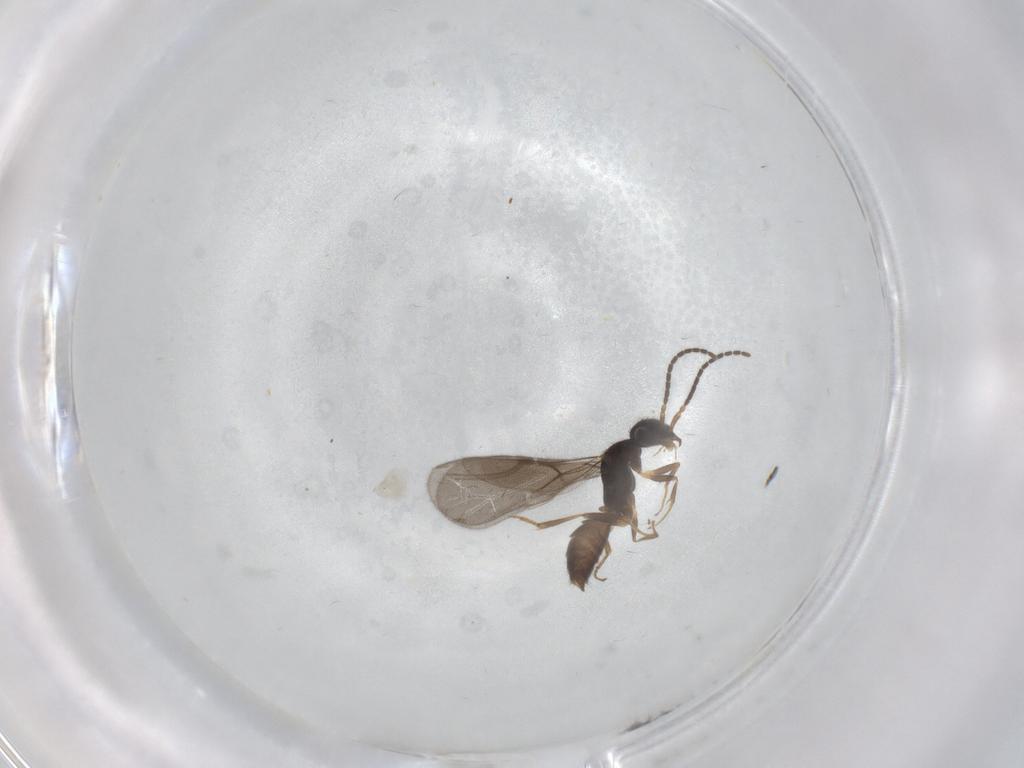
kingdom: Animalia
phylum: Arthropoda
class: Insecta
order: Hymenoptera
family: Bethylidae
